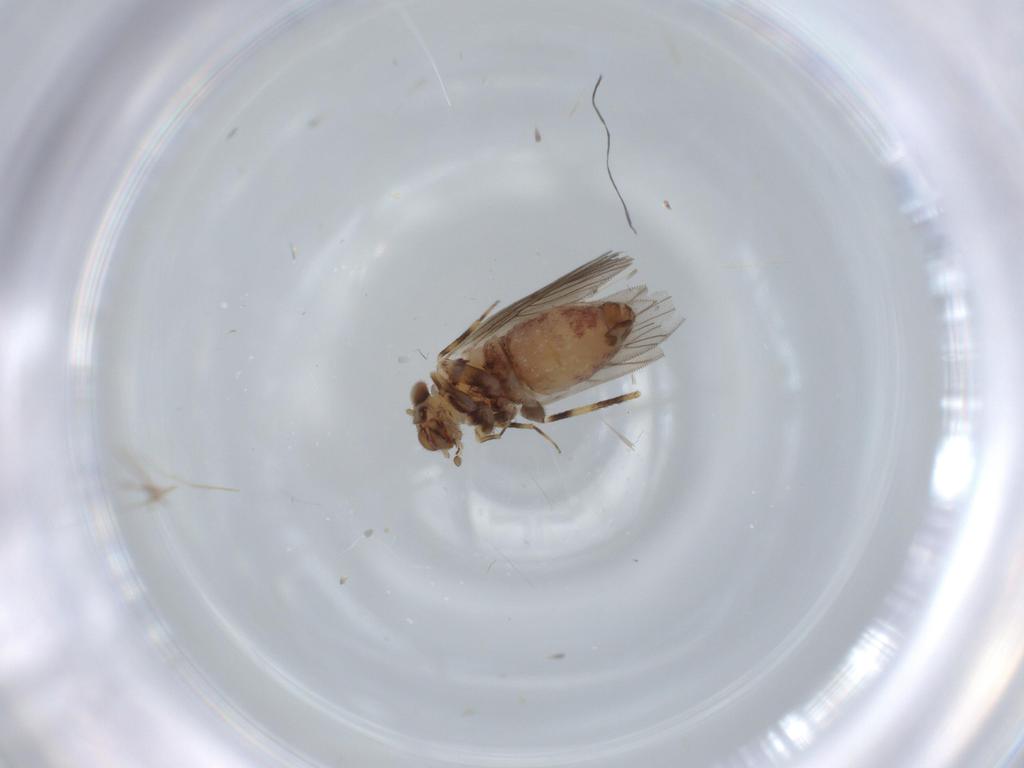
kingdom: Animalia
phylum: Arthropoda
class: Insecta
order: Psocodea
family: Lepidopsocidae
